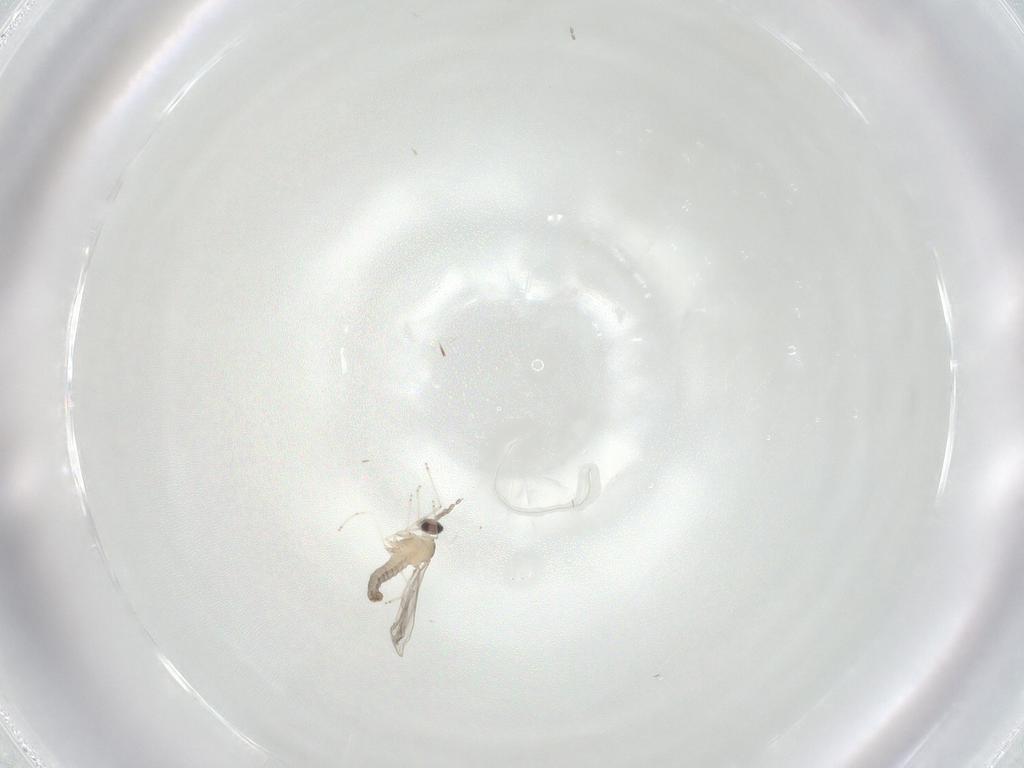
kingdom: Animalia
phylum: Arthropoda
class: Insecta
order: Diptera
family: Cecidomyiidae
